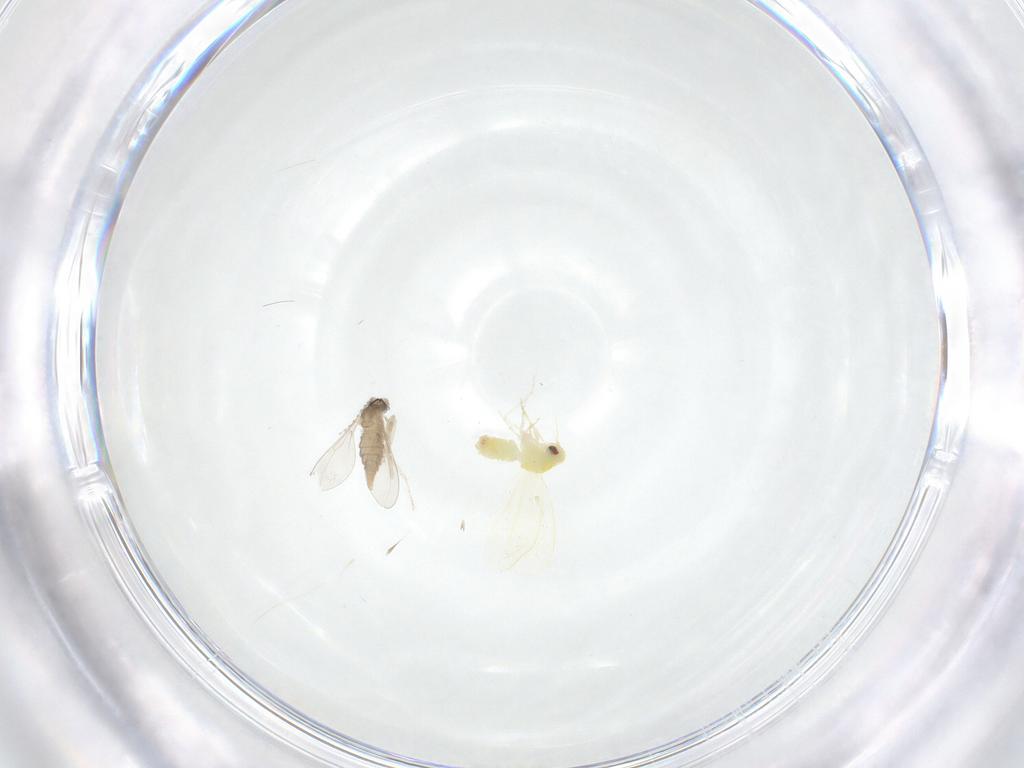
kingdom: Animalia
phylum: Arthropoda
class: Insecta
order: Diptera
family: Cecidomyiidae
